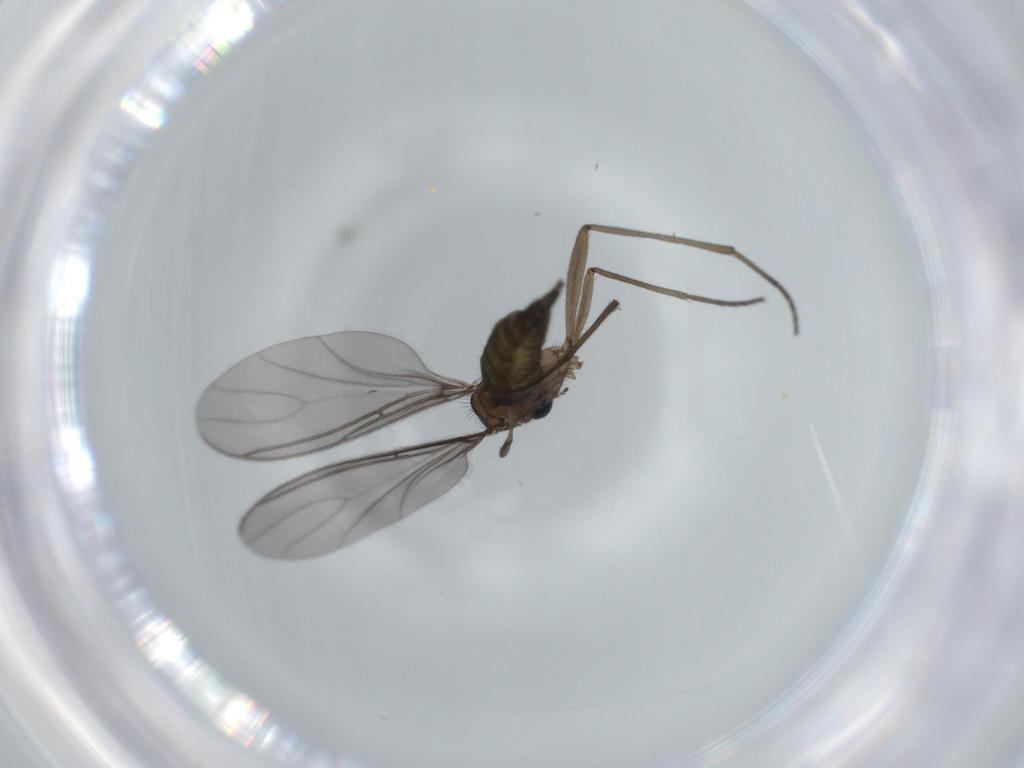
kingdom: Animalia
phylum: Arthropoda
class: Insecta
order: Diptera
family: Sciaridae
